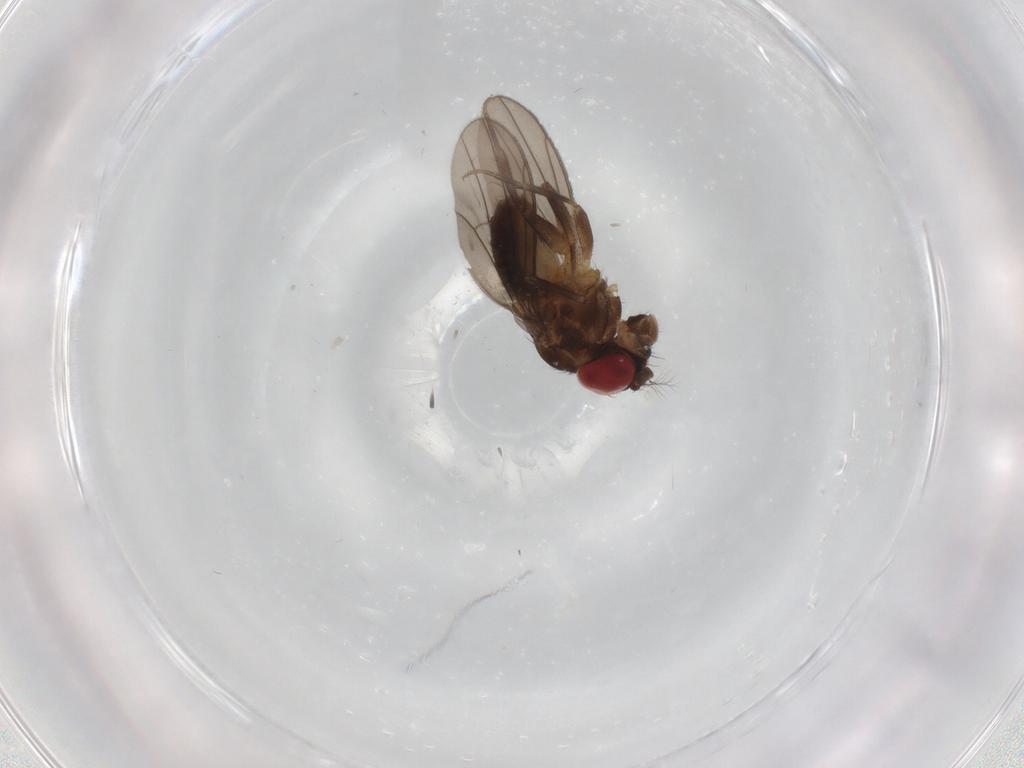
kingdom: Animalia
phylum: Arthropoda
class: Insecta
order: Diptera
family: Drosophilidae
